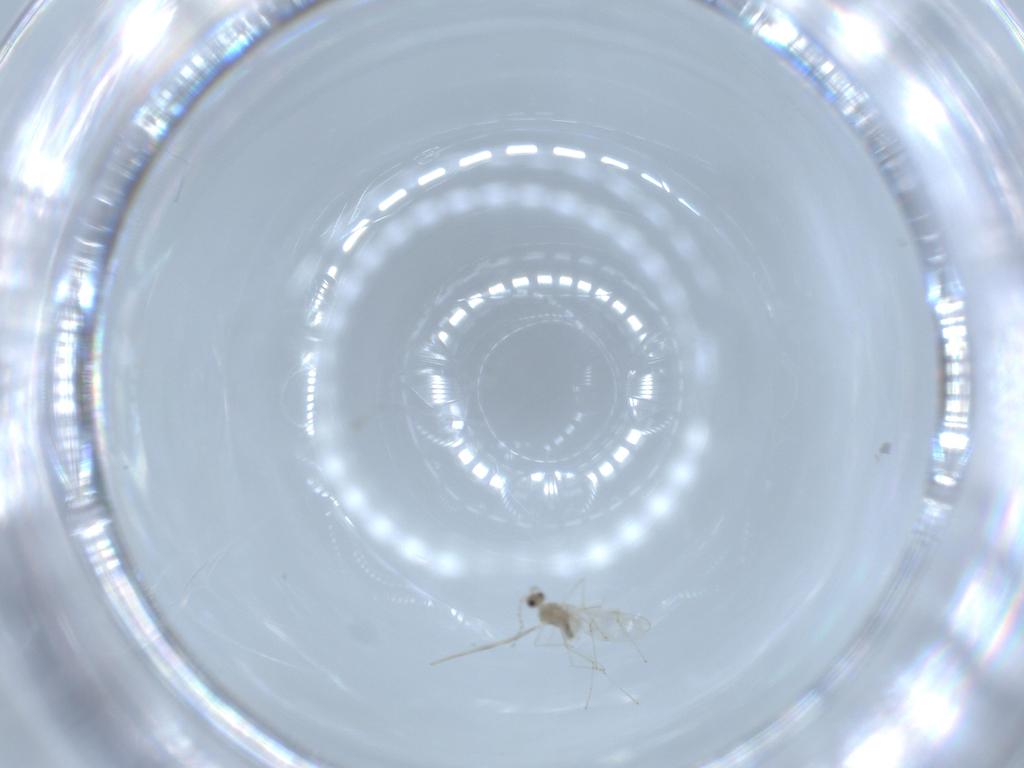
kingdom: Animalia
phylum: Arthropoda
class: Insecta
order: Diptera
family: Cecidomyiidae
